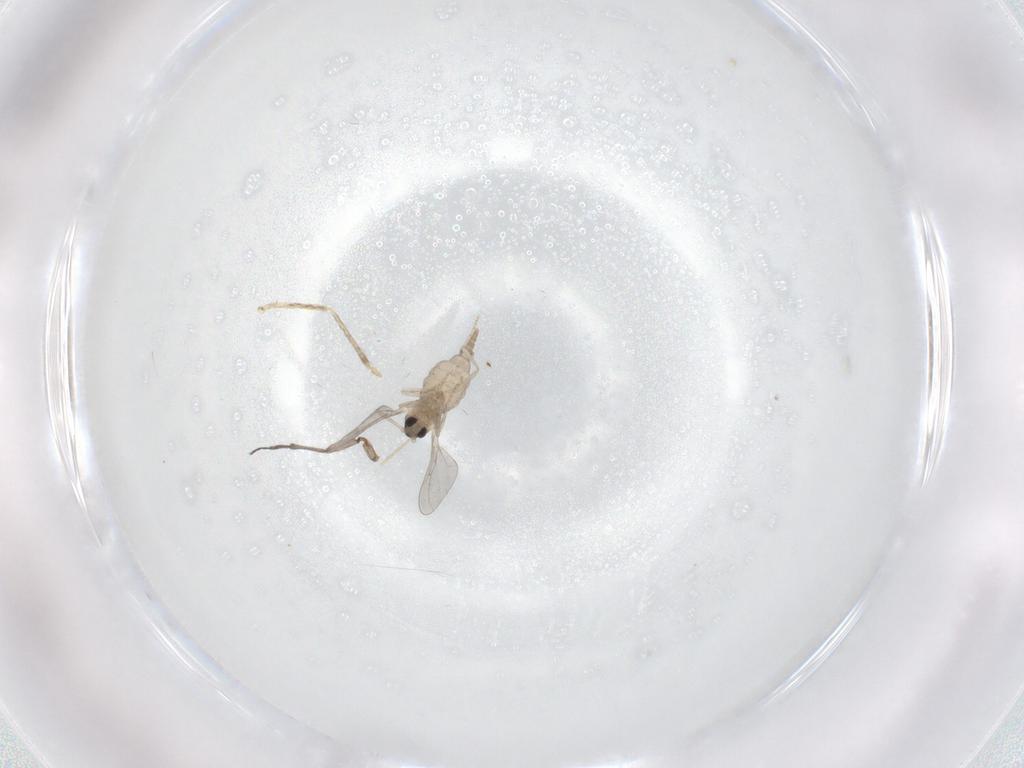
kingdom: Animalia
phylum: Arthropoda
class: Insecta
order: Diptera
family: Cecidomyiidae
